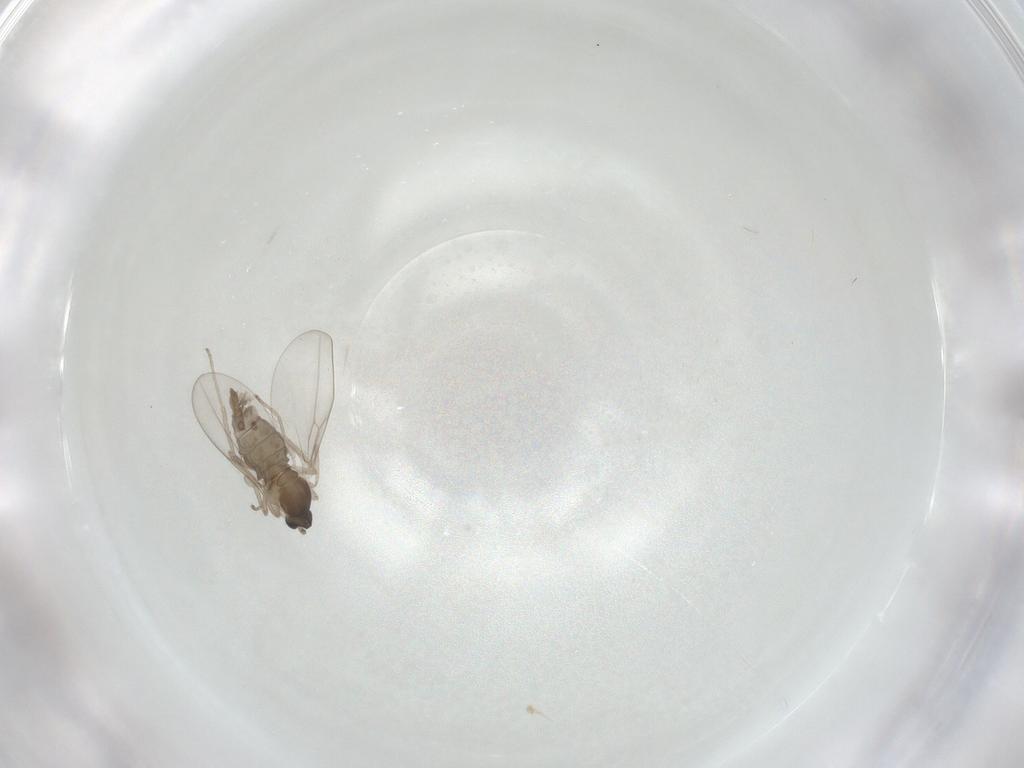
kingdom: Animalia
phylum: Arthropoda
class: Insecta
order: Diptera
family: Cecidomyiidae
